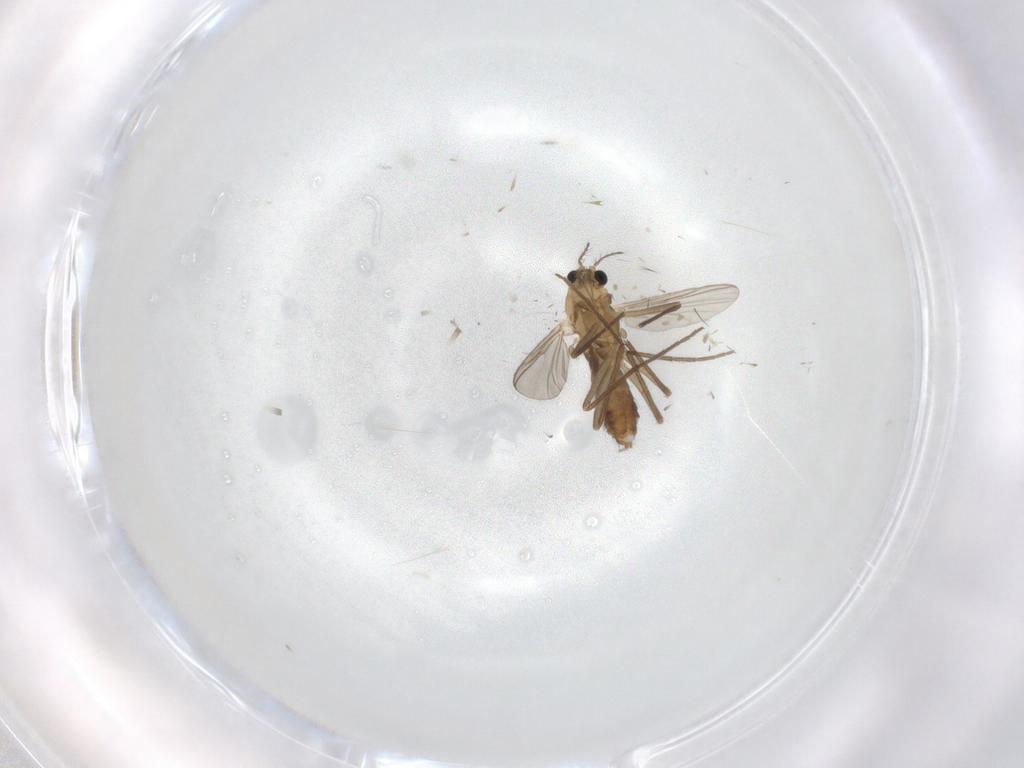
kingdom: Animalia
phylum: Arthropoda
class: Insecta
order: Diptera
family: Chironomidae
